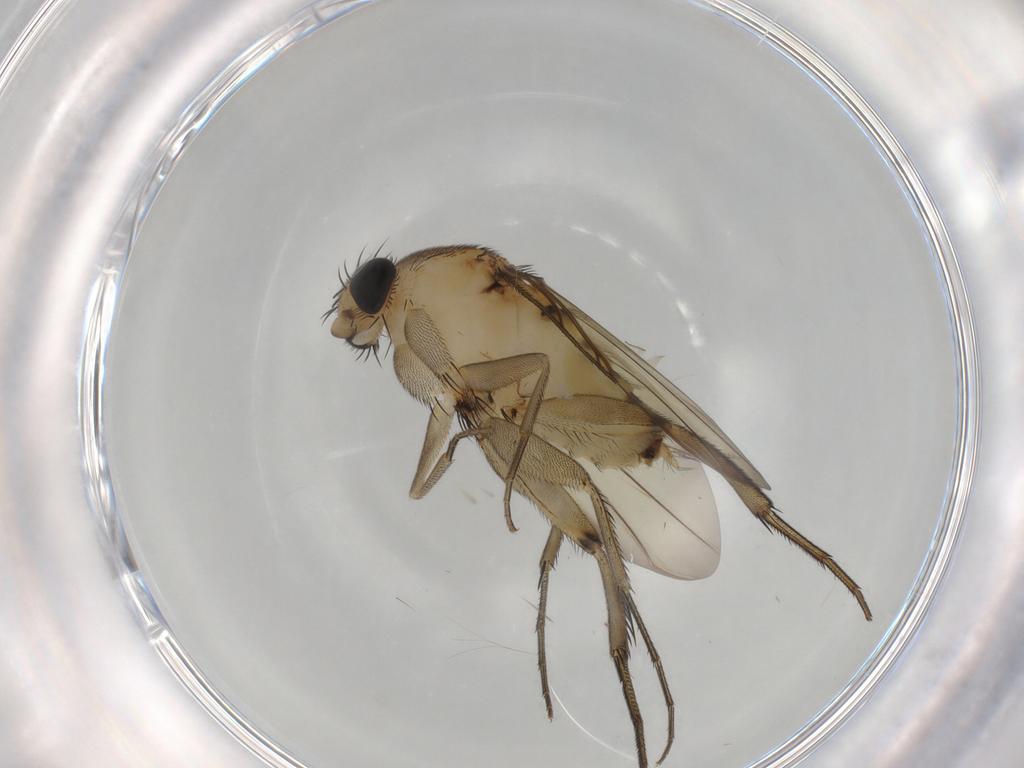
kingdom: Animalia
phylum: Arthropoda
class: Insecta
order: Diptera
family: Phoridae
